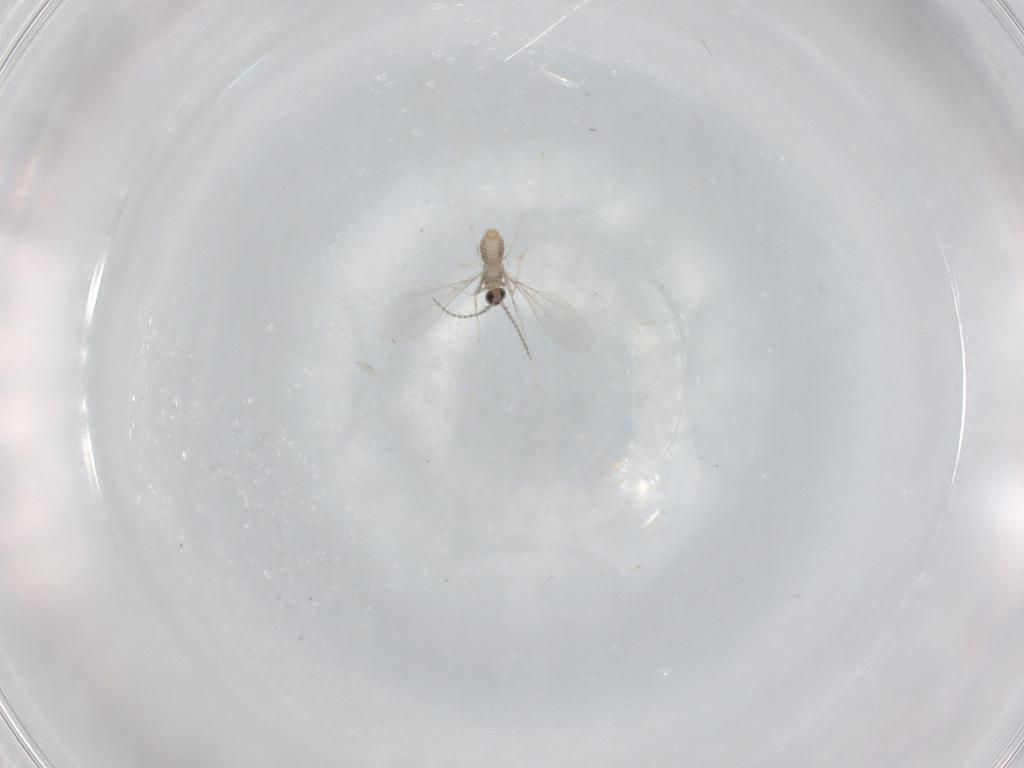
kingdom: Animalia
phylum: Arthropoda
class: Insecta
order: Diptera
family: Cecidomyiidae
